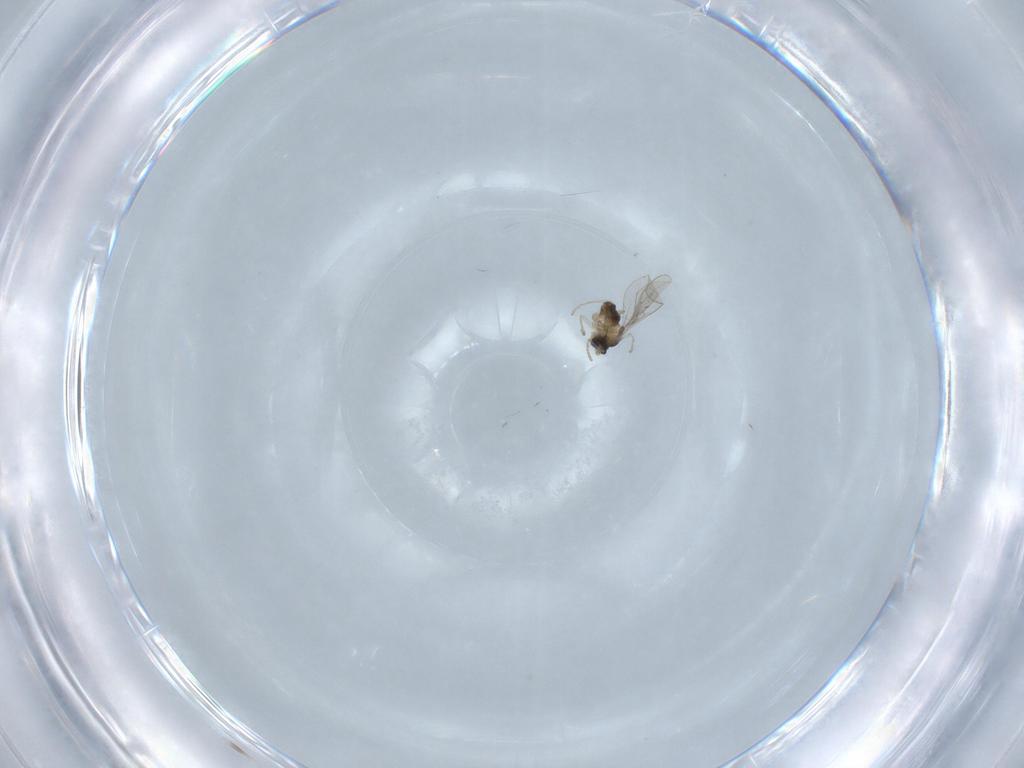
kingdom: Animalia
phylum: Arthropoda
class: Insecta
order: Diptera
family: Cecidomyiidae
